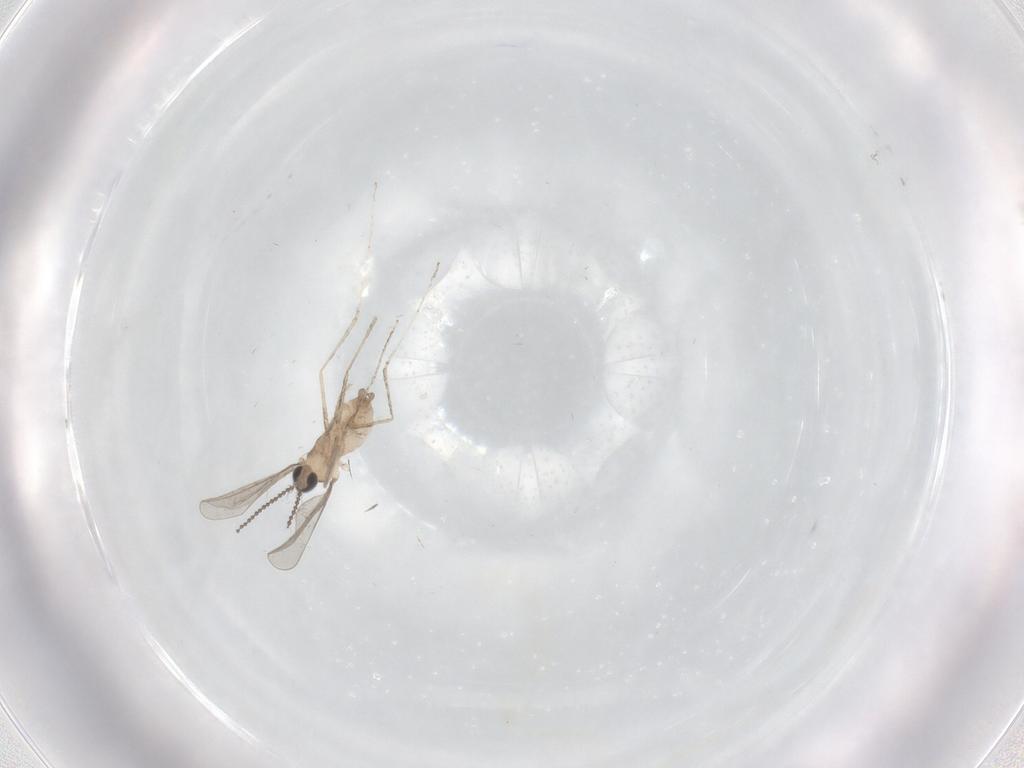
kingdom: Animalia
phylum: Arthropoda
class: Insecta
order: Diptera
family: Cecidomyiidae
